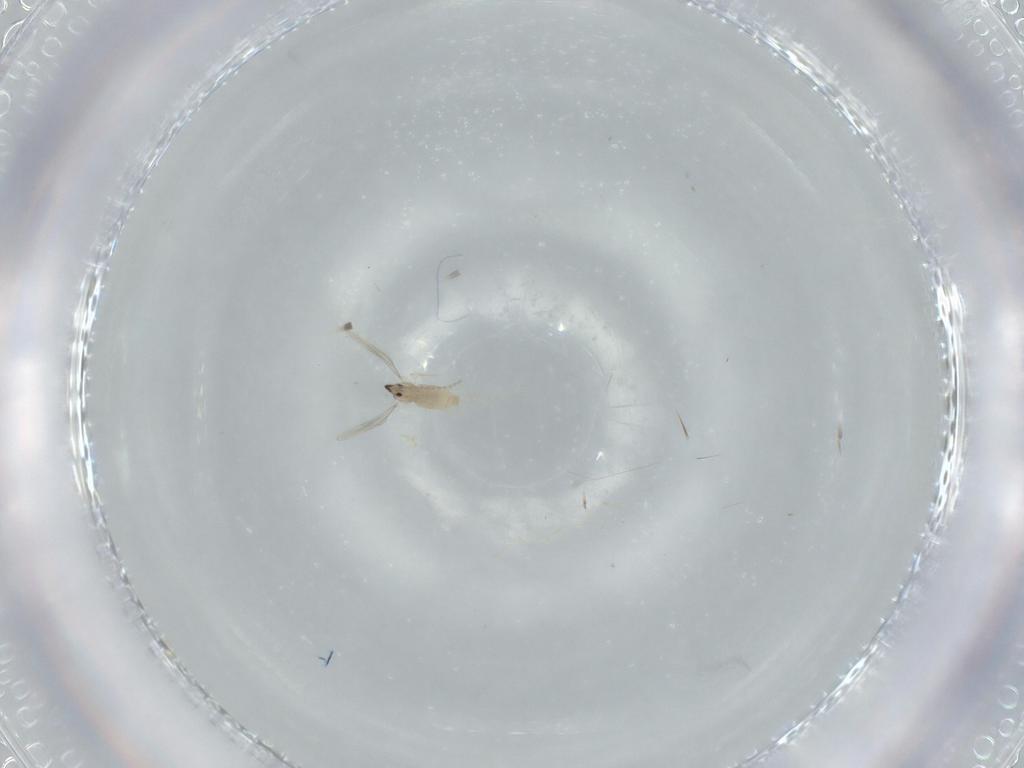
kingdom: Animalia
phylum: Arthropoda
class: Insecta
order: Diptera
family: Cecidomyiidae
